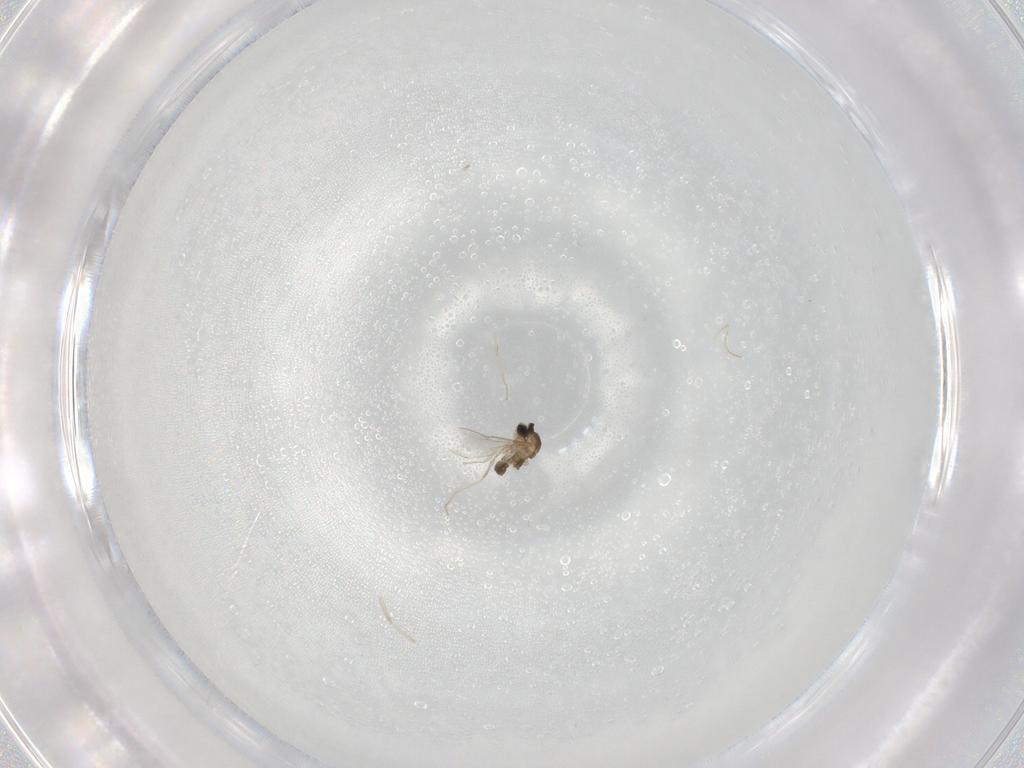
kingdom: Animalia
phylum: Arthropoda
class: Insecta
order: Diptera
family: Cecidomyiidae
